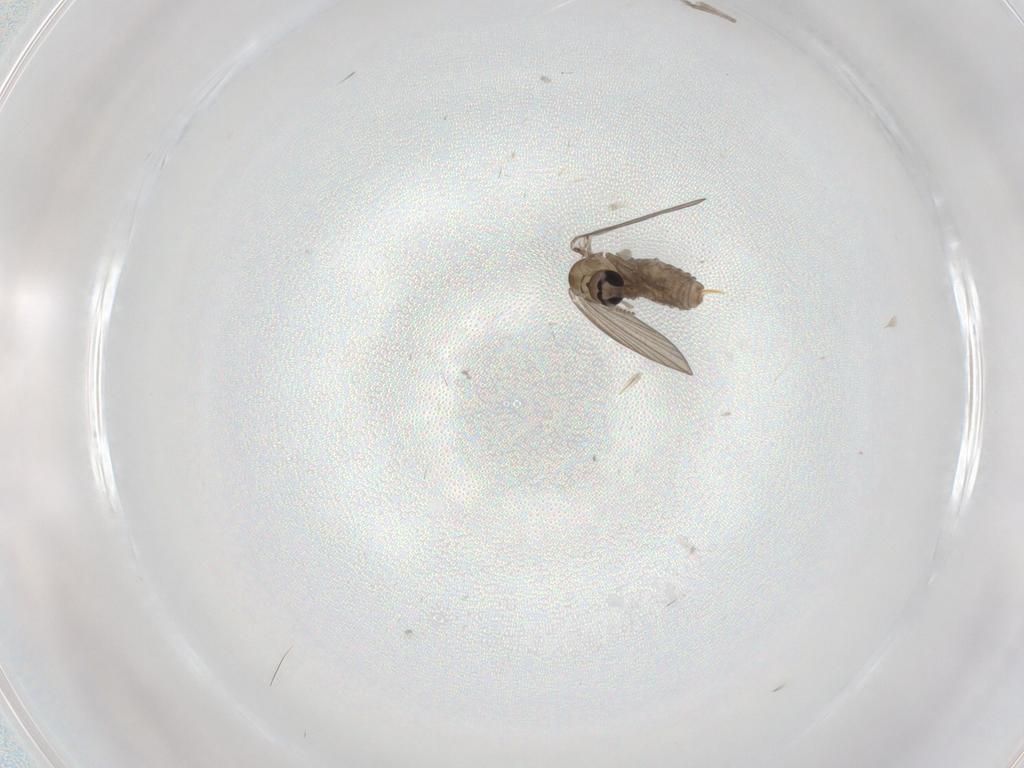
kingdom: Animalia
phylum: Arthropoda
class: Insecta
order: Diptera
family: Psychodidae
